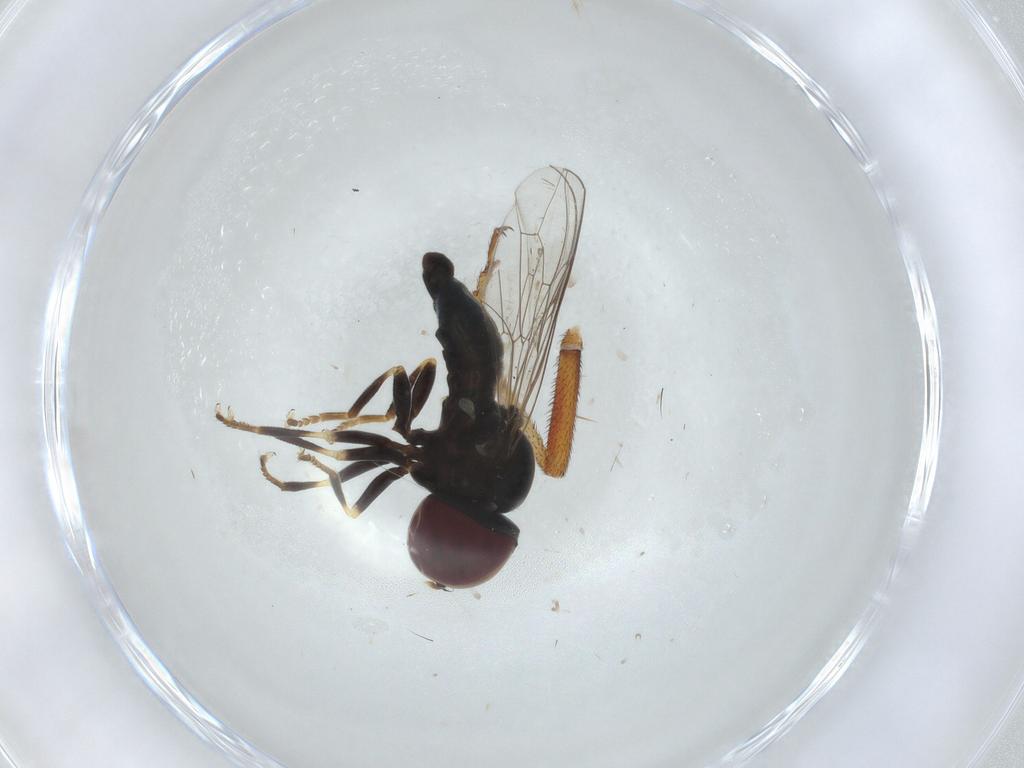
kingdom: Animalia
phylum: Arthropoda
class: Insecta
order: Diptera
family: Pipunculidae
